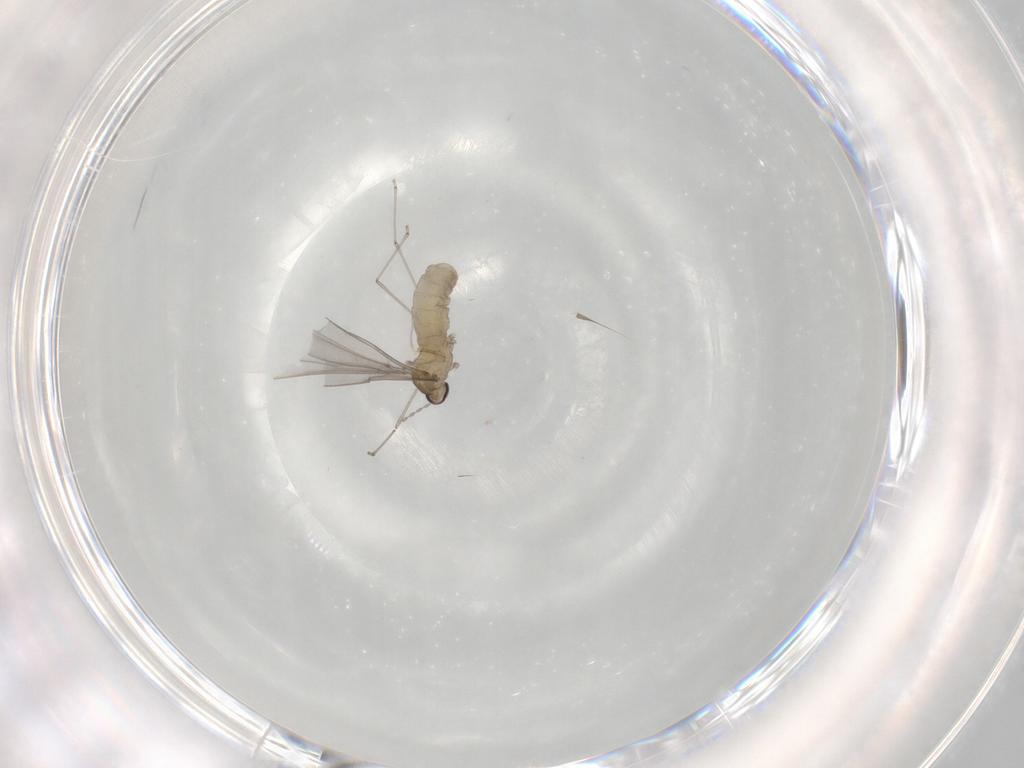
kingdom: Animalia
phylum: Arthropoda
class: Insecta
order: Diptera
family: Cecidomyiidae
